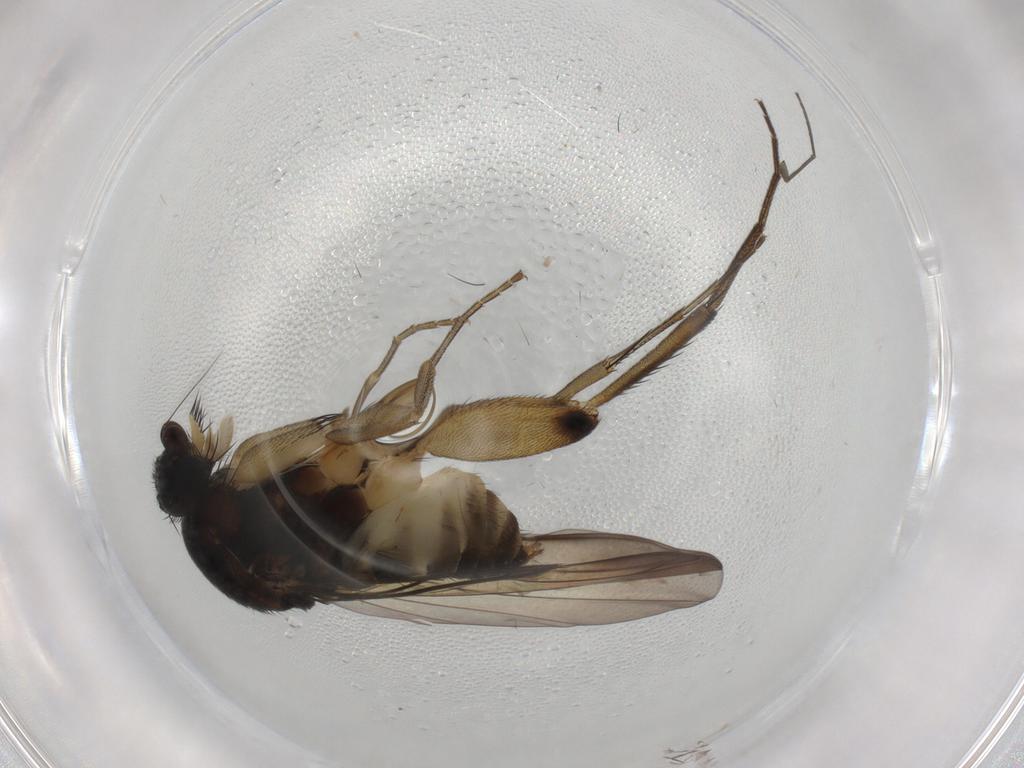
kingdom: Animalia
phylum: Arthropoda
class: Insecta
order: Diptera
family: Phoridae
